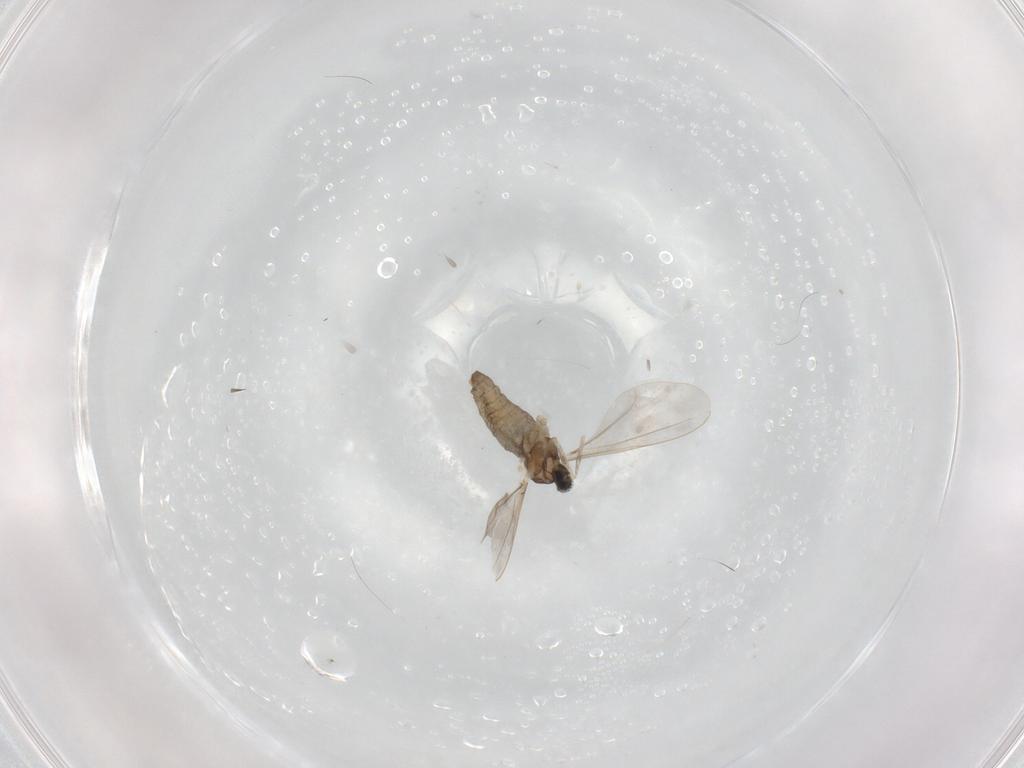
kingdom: Animalia
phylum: Arthropoda
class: Insecta
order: Diptera
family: Cecidomyiidae
